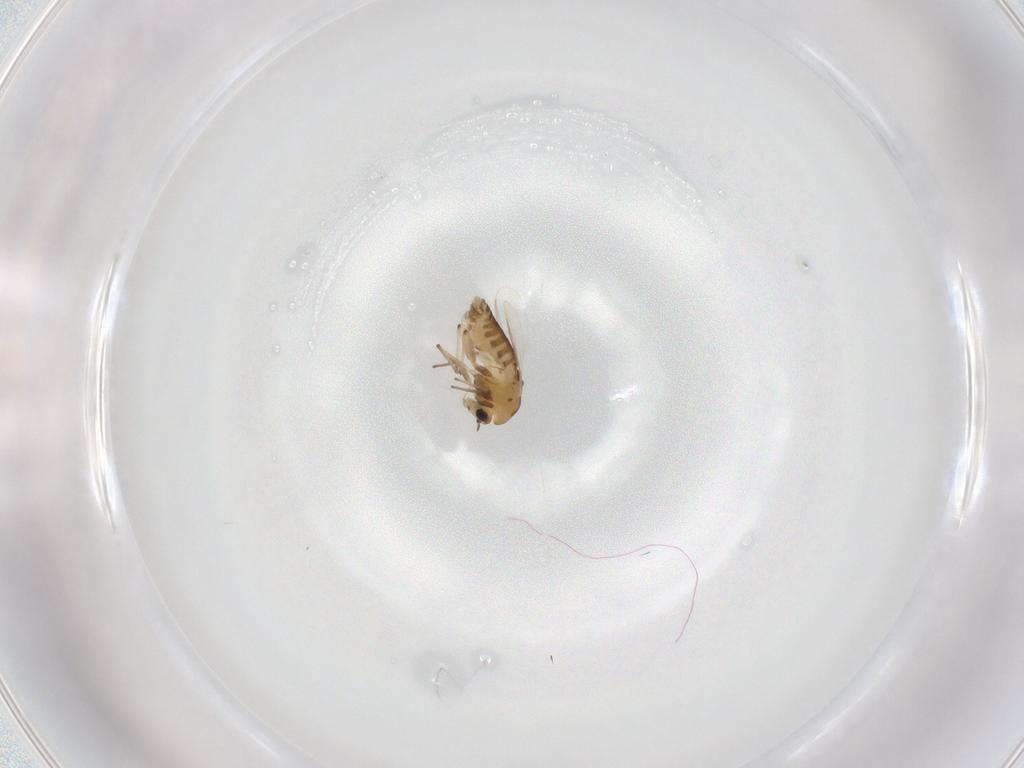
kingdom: Animalia
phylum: Arthropoda
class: Insecta
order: Diptera
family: Chironomidae
